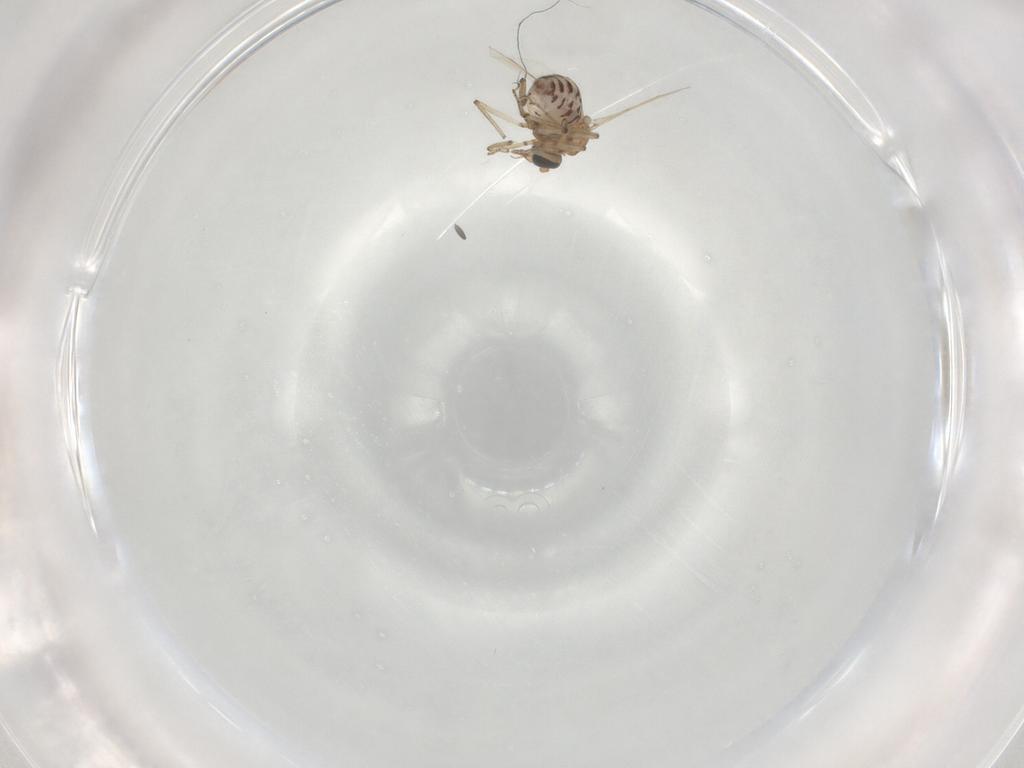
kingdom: Animalia
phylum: Arthropoda
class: Insecta
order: Diptera
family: Ceratopogonidae
